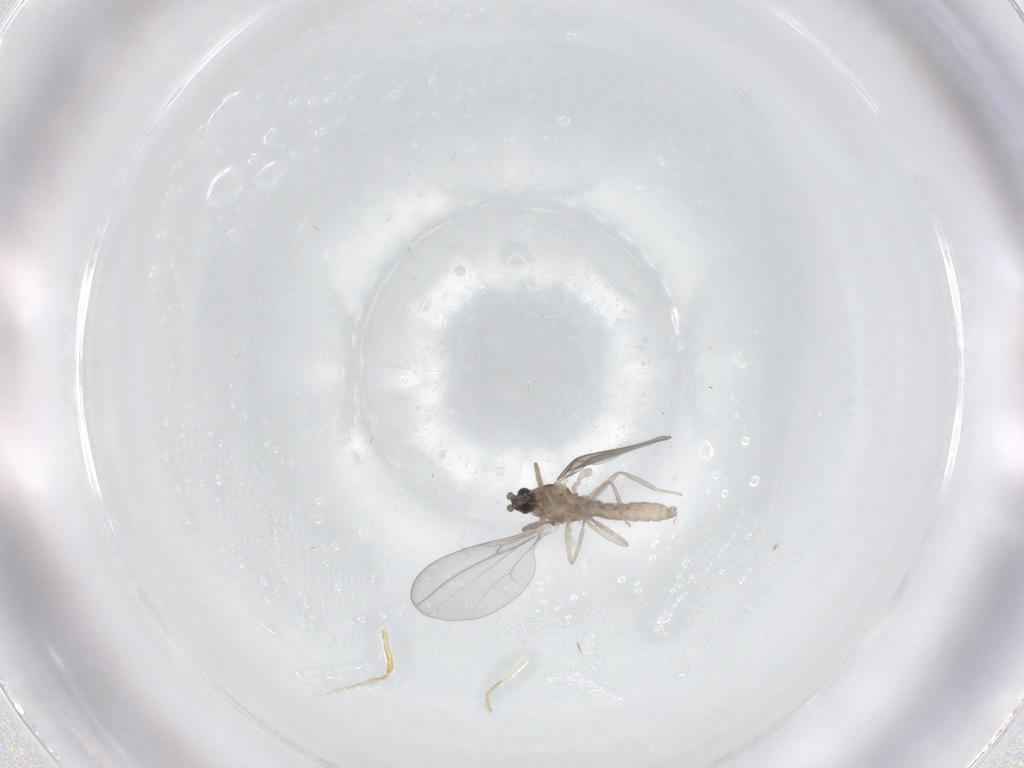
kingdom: Animalia
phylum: Arthropoda
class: Insecta
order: Diptera
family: Cecidomyiidae
